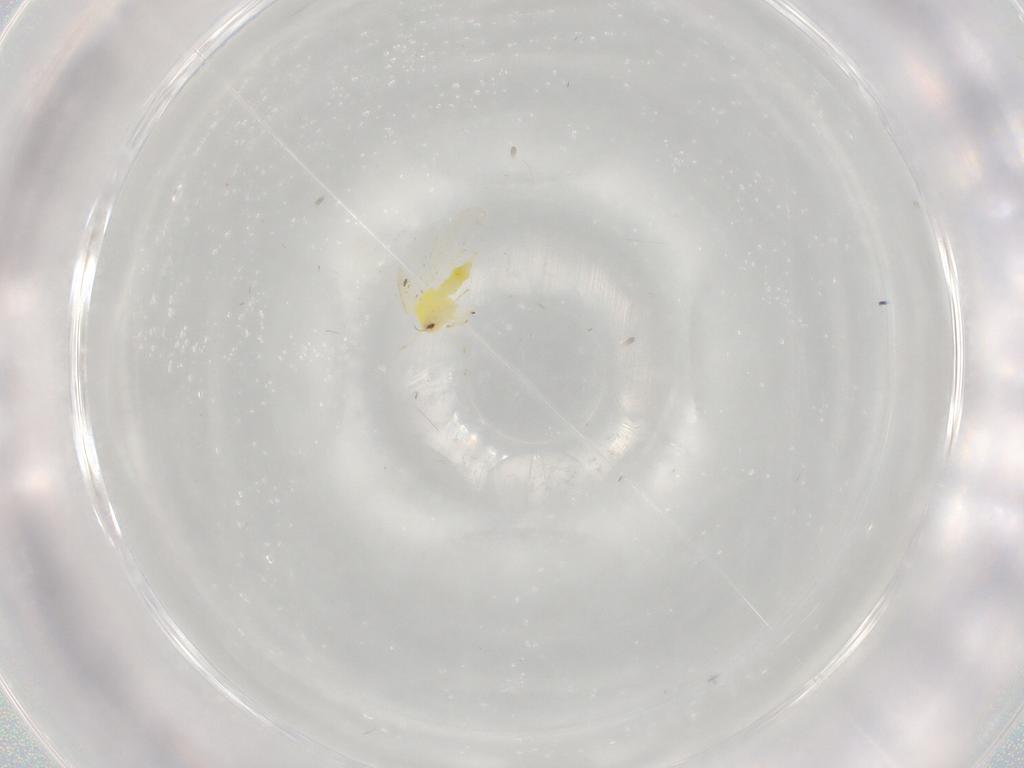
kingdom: Animalia
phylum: Arthropoda
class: Insecta
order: Hemiptera
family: Aleyrodidae
